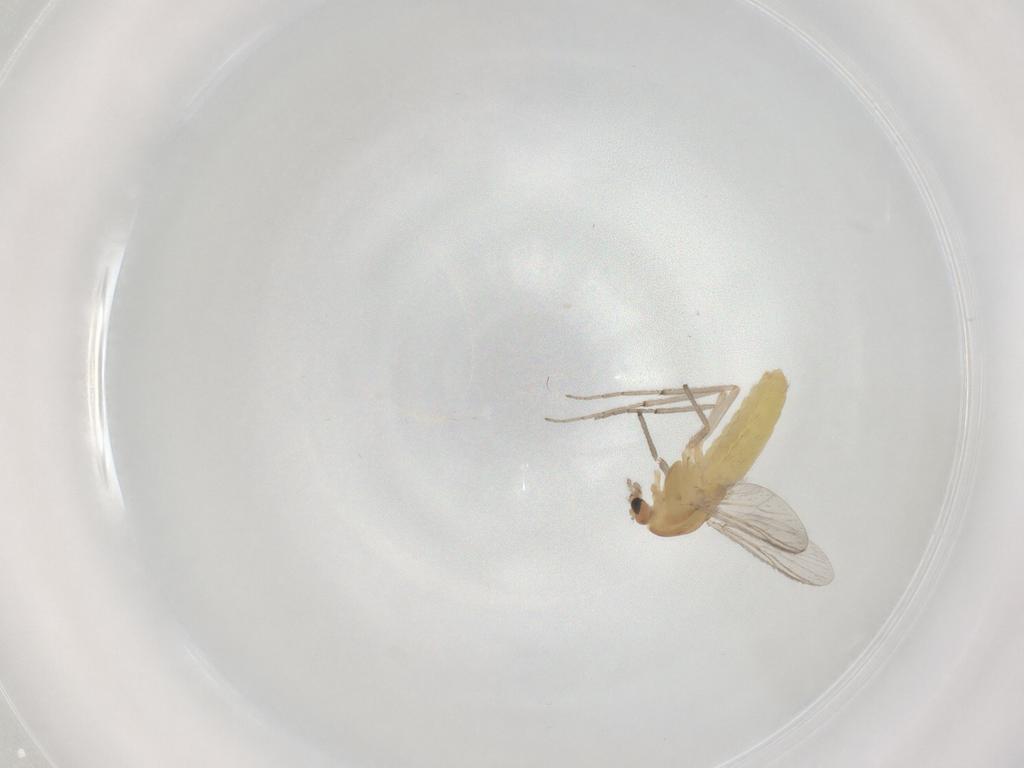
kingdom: Animalia
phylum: Arthropoda
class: Insecta
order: Diptera
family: Chironomidae
